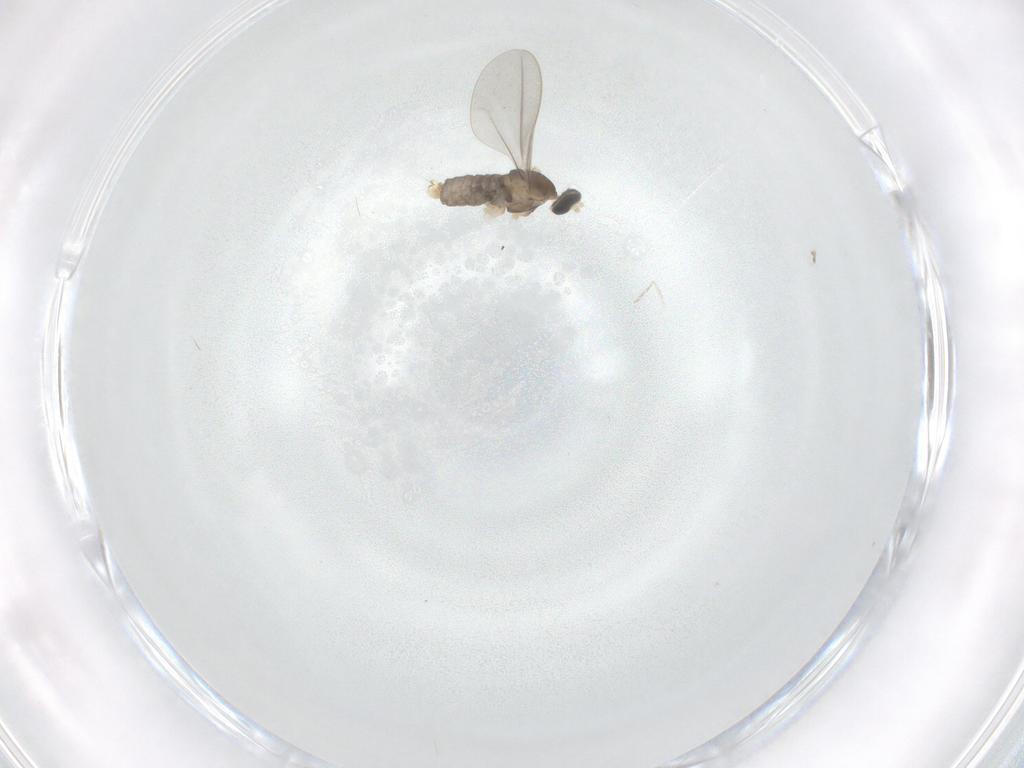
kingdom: Animalia
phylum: Arthropoda
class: Insecta
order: Diptera
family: Cecidomyiidae
